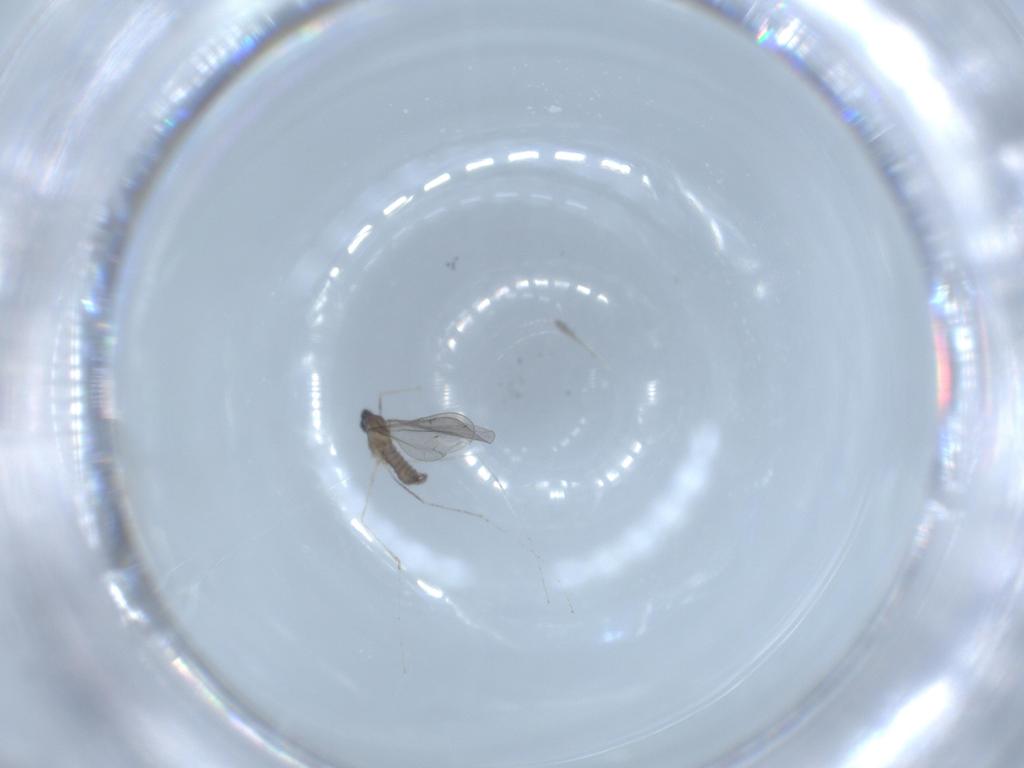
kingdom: Animalia
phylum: Arthropoda
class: Insecta
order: Diptera
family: Cecidomyiidae
